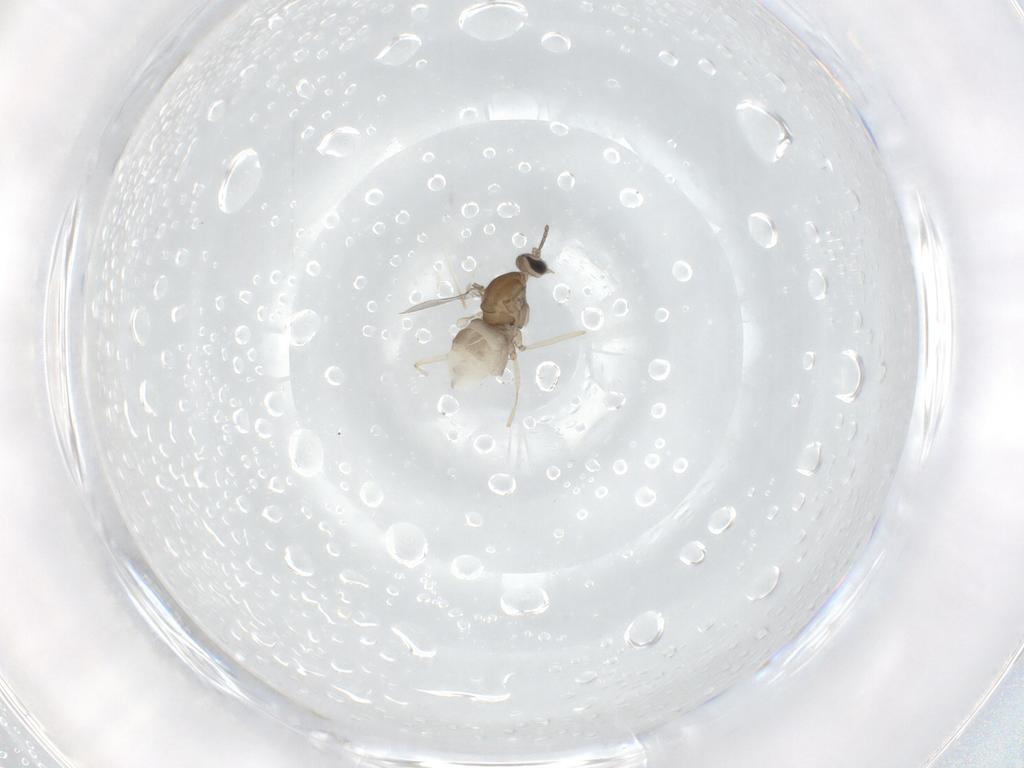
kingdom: Animalia
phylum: Arthropoda
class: Insecta
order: Diptera
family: Cecidomyiidae
